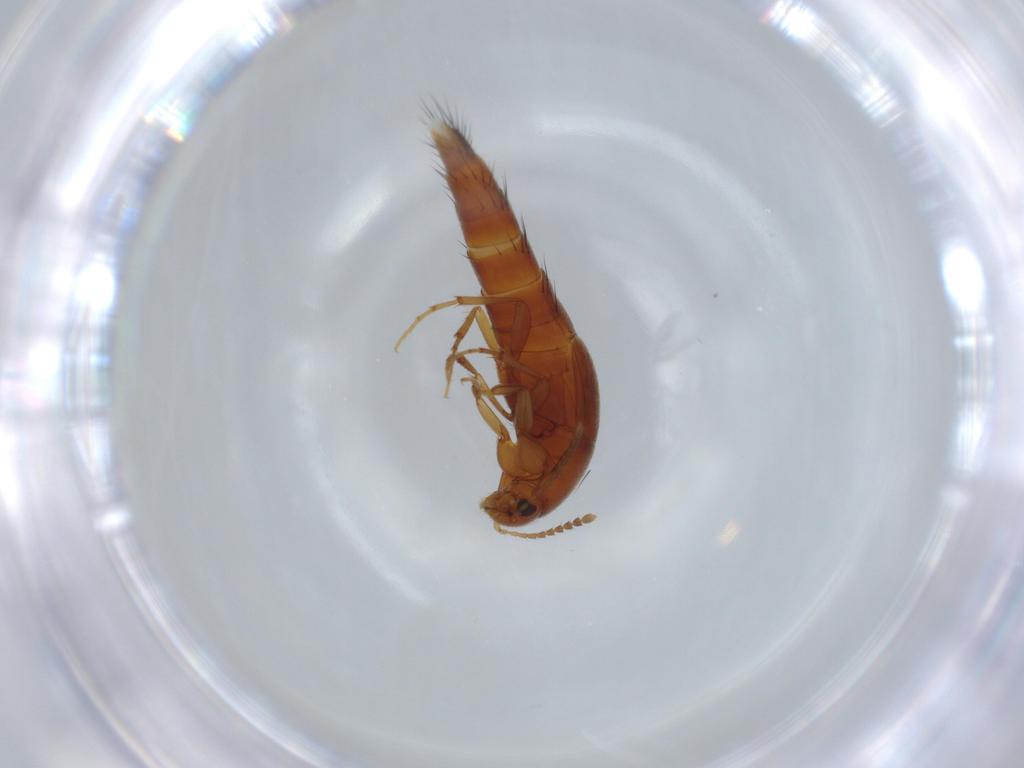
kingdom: Animalia
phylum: Arthropoda
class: Insecta
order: Coleoptera
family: Staphylinidae
